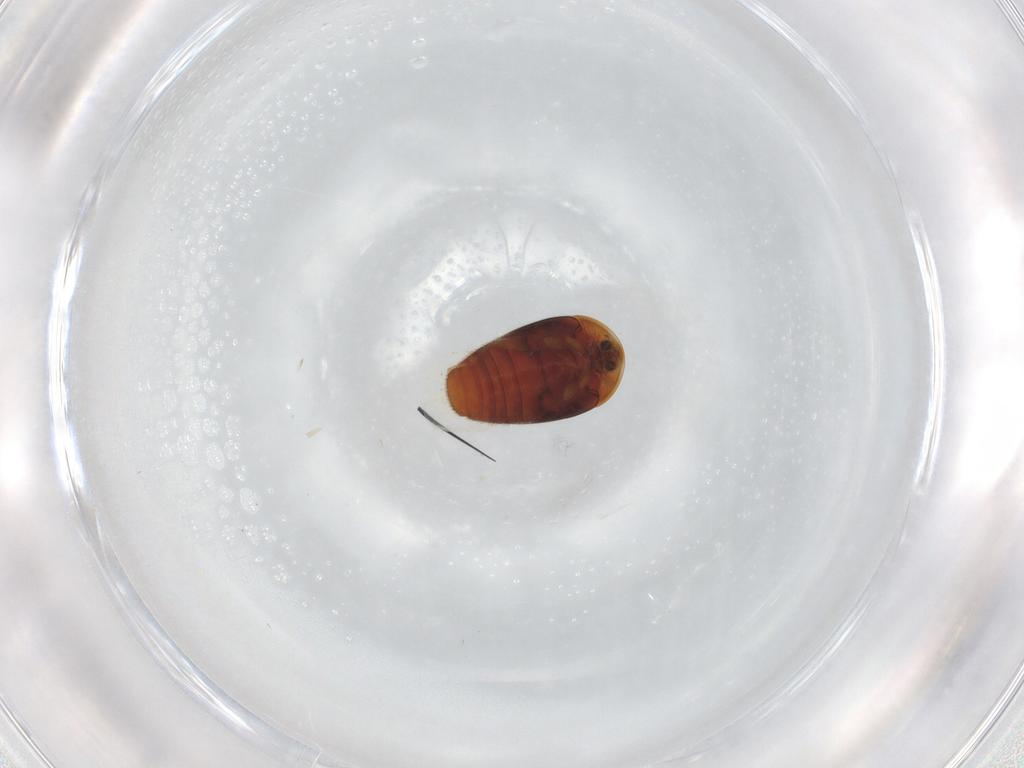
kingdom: Animalia
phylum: Arthropoda
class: Insecta
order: Coleoptera
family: Corylophidae
